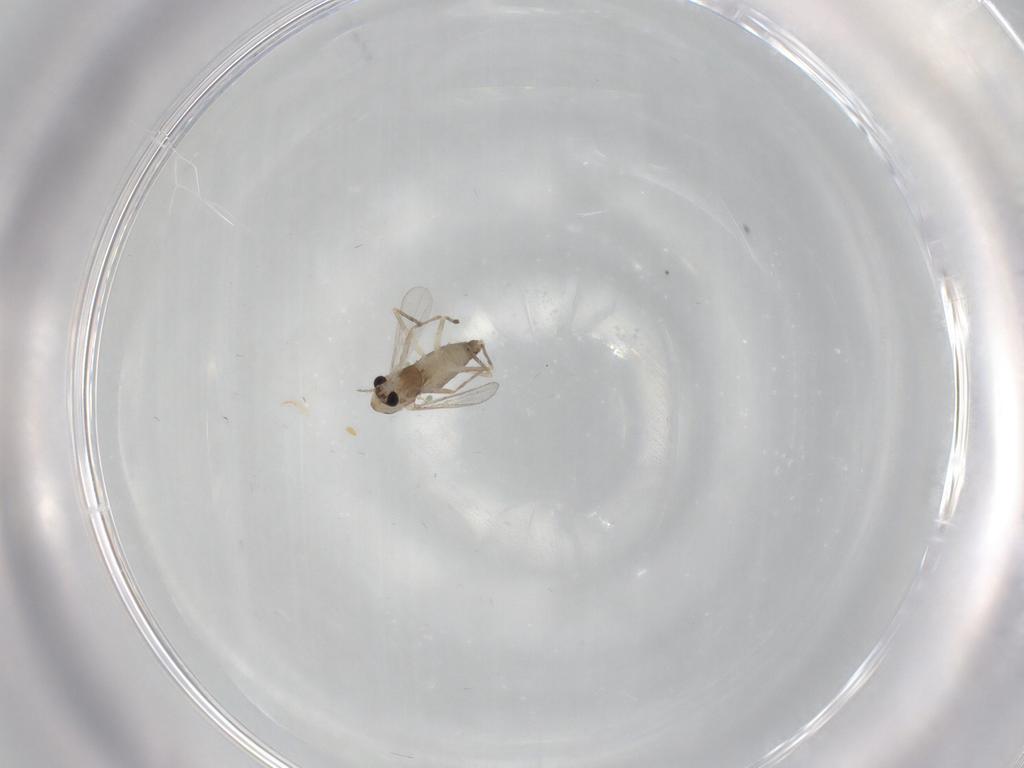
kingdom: Animalia
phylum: Arthropoda
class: Insecta
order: Diptera
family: Chironomidae
